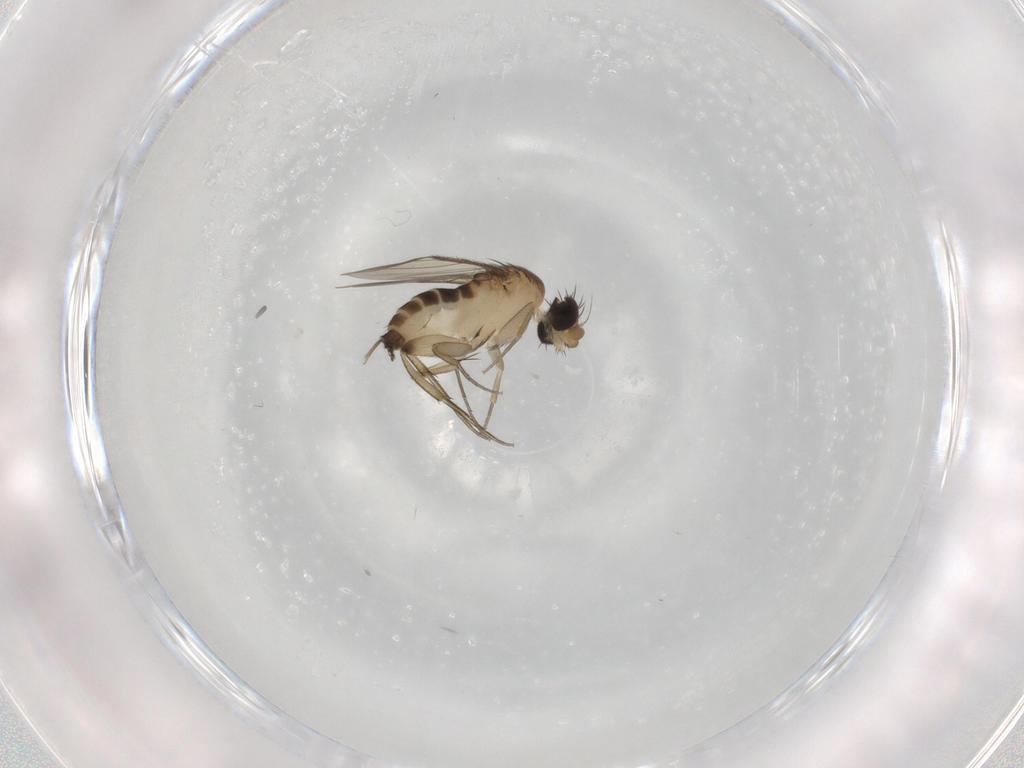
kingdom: Animalia
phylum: Arthropoda
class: Insecta
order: Diptera
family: Phoridae
